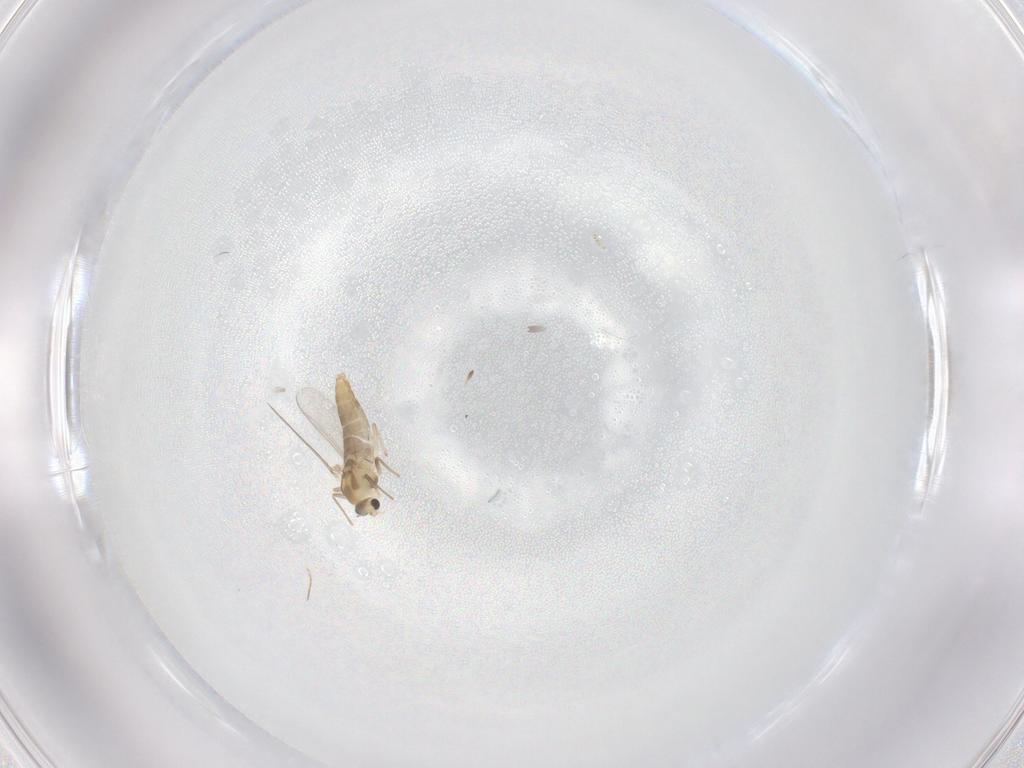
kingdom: Animalia
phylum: Arthropoda
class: Insecta
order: Diptera
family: Chironomidae
